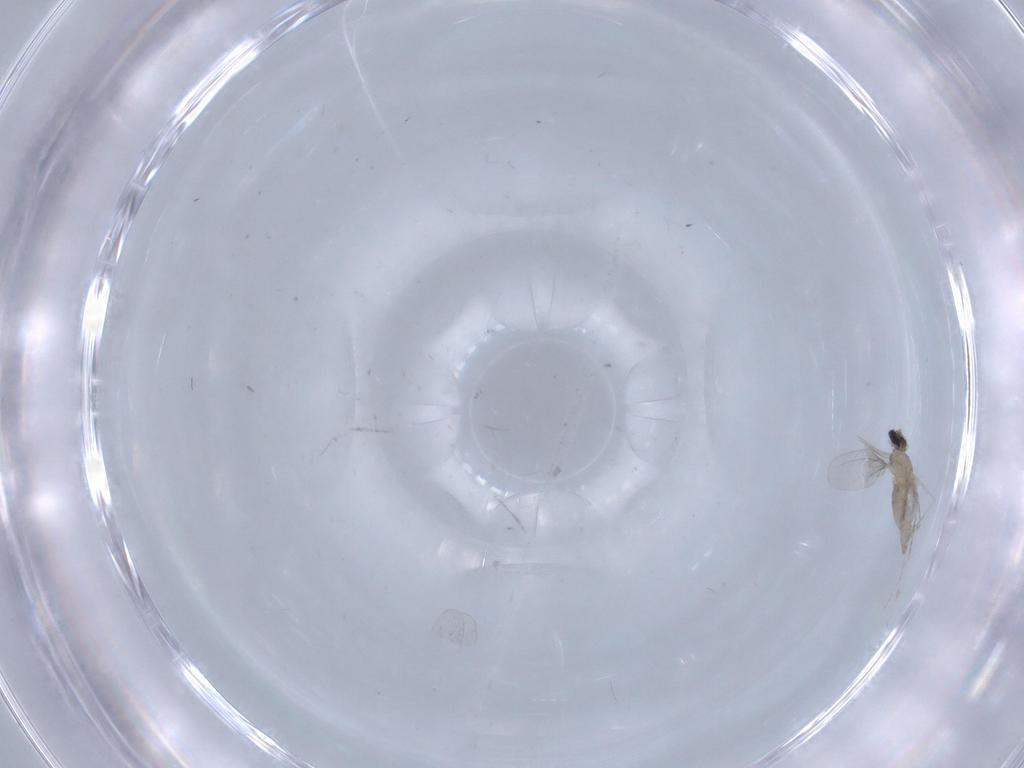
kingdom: Animalia
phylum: Arthropoda
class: Insecta
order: Diptera
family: Cecidomyiidae
